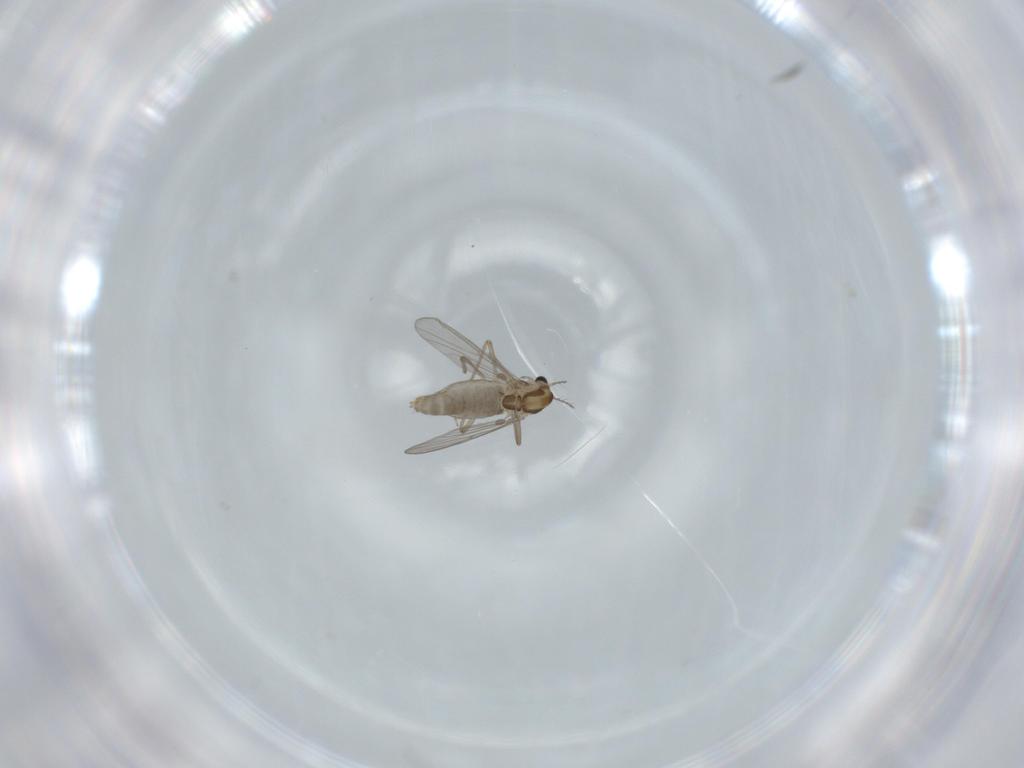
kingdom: Animalia
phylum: Arthropoda
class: Insecta
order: Diptera
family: Chironomidae
